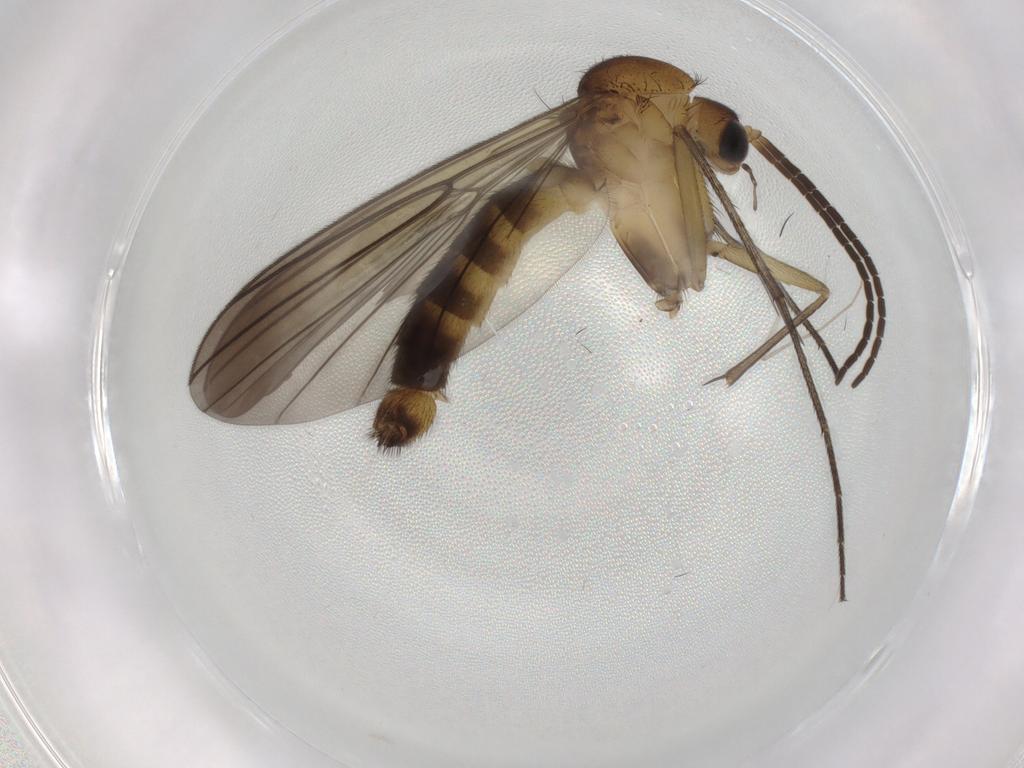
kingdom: Animalia
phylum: Arthropoda
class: Insecta
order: Diptera
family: Mycetophilidae
